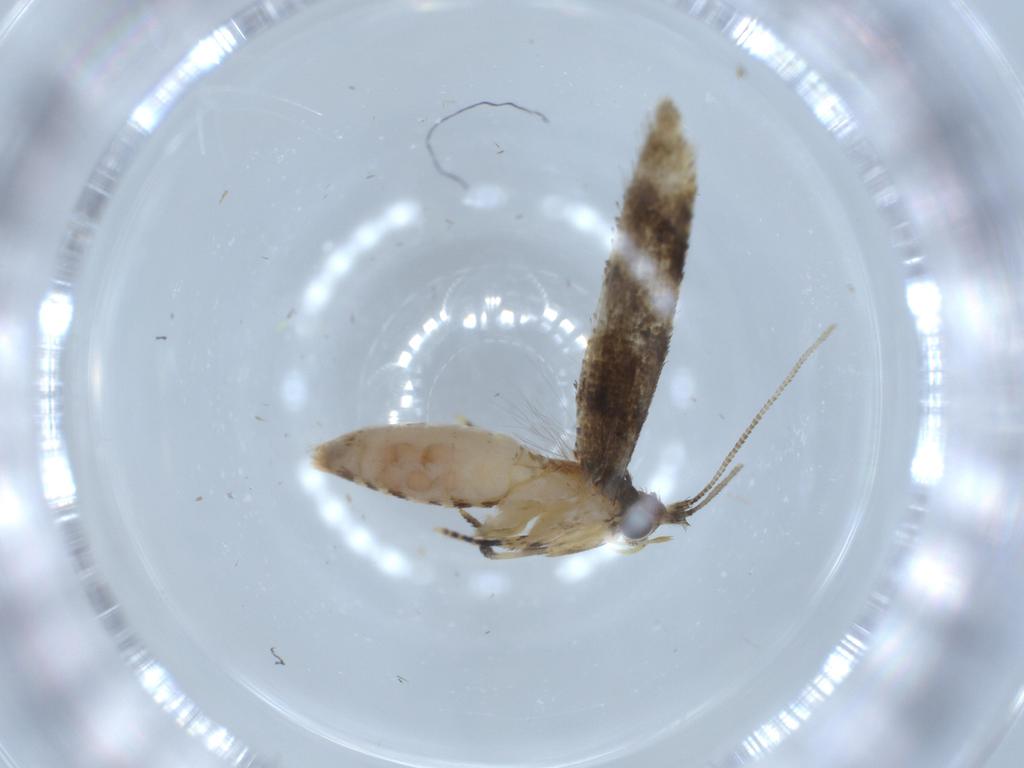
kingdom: Animalia
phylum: Arthropoda
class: Insecta
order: Lepidoptera
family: Tineidae
